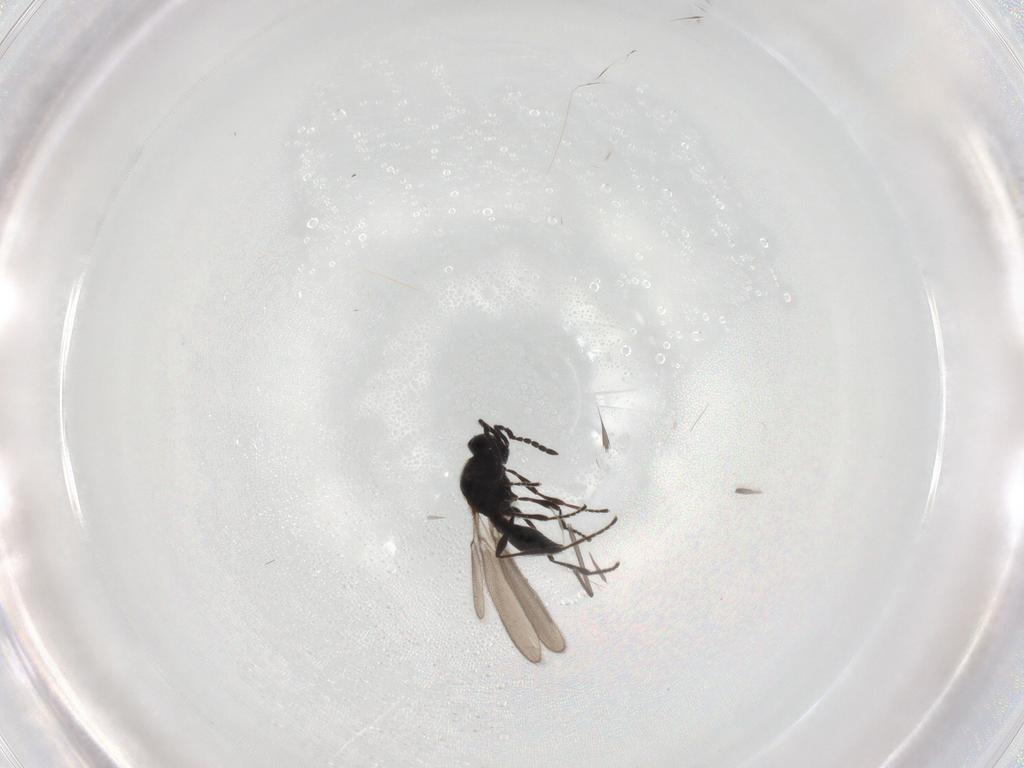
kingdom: Animalia
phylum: Arthropoda
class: Insecta
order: Hymenoptera
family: Platygastridae
